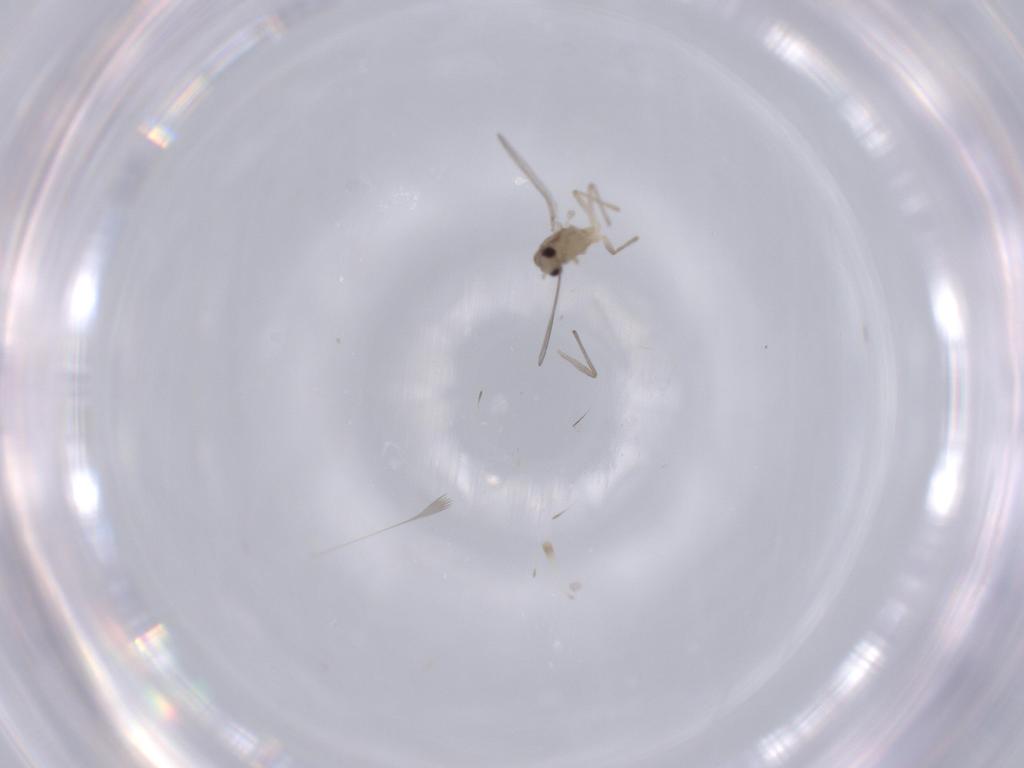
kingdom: Animalia
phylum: Arthropoda
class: Insecta
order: Diptera
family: Chironomidae
